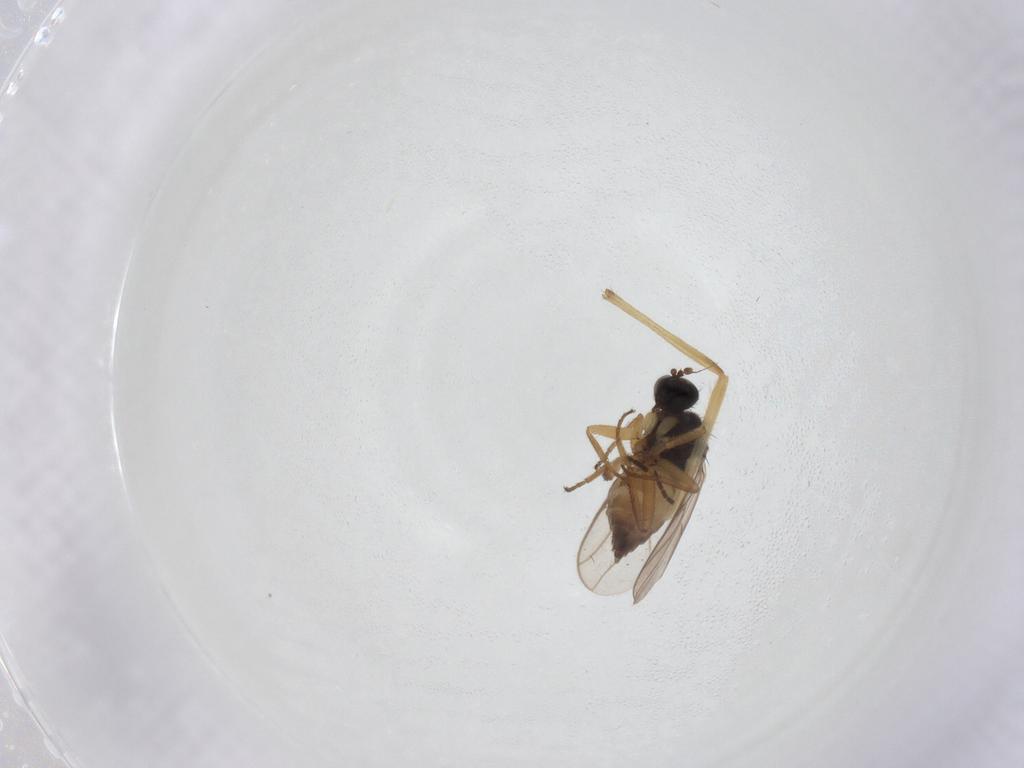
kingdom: Animalia
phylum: Arthropoda
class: Insecta
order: Diptera
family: Chironomidae
